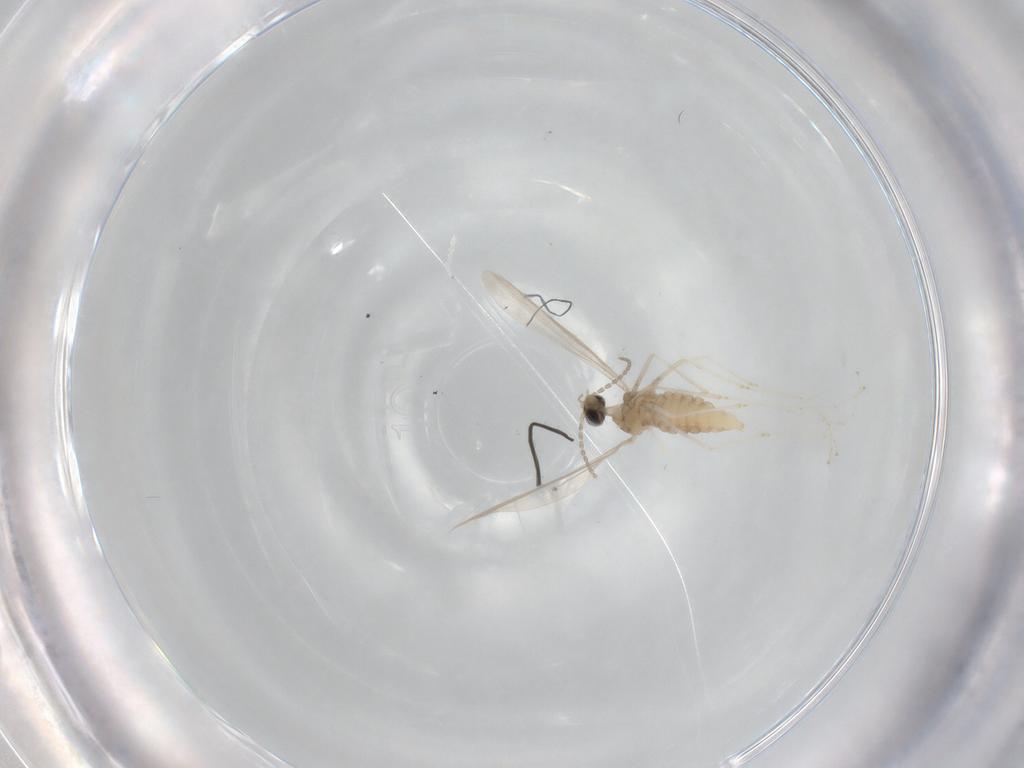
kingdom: Animalia
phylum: Arthropoda
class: Insecta
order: Diptera
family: Cecidomyiidae
